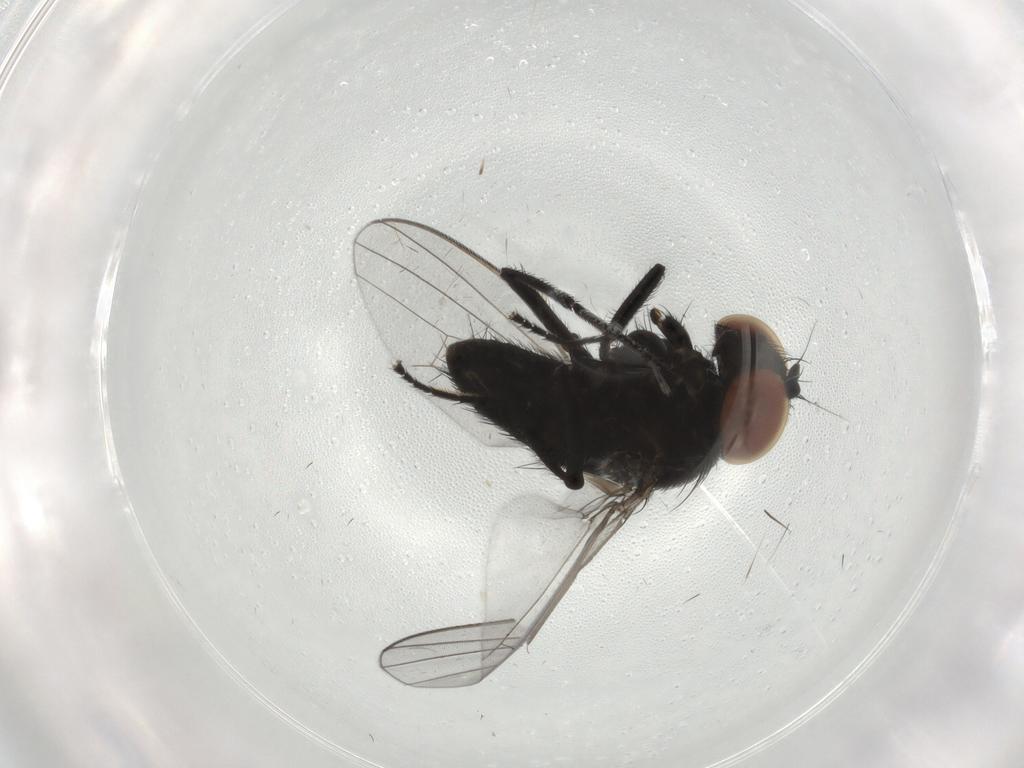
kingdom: Animalia
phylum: Arthropoda
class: Insecta
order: Diptera
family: Milichiidae
